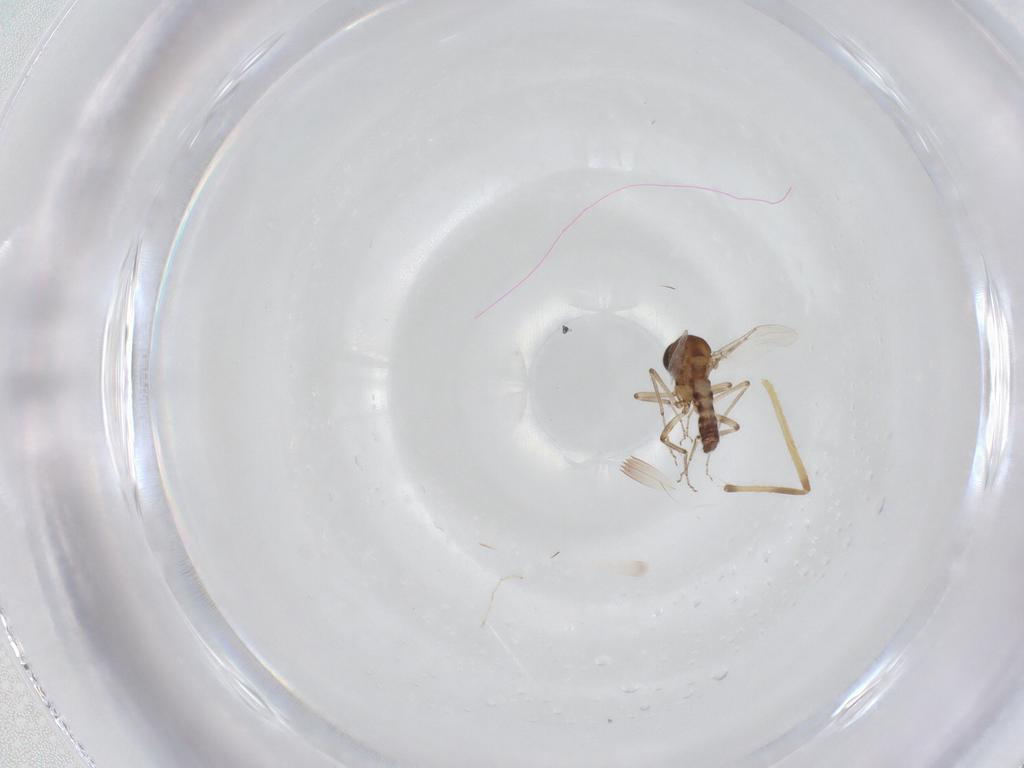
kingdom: Animalia
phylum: Arthropoda
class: Insecta
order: Diptera
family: Ceratopogonidae
